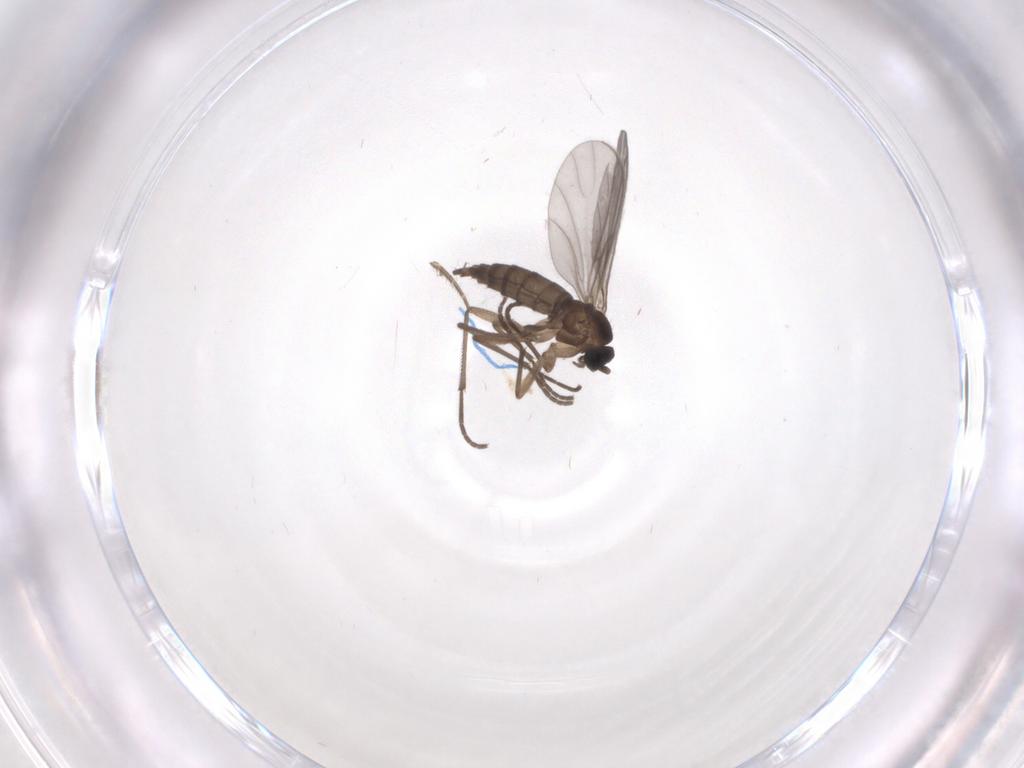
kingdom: Animalia
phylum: Arthropoda
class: Insecta
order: Diptera
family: Sciaridae
